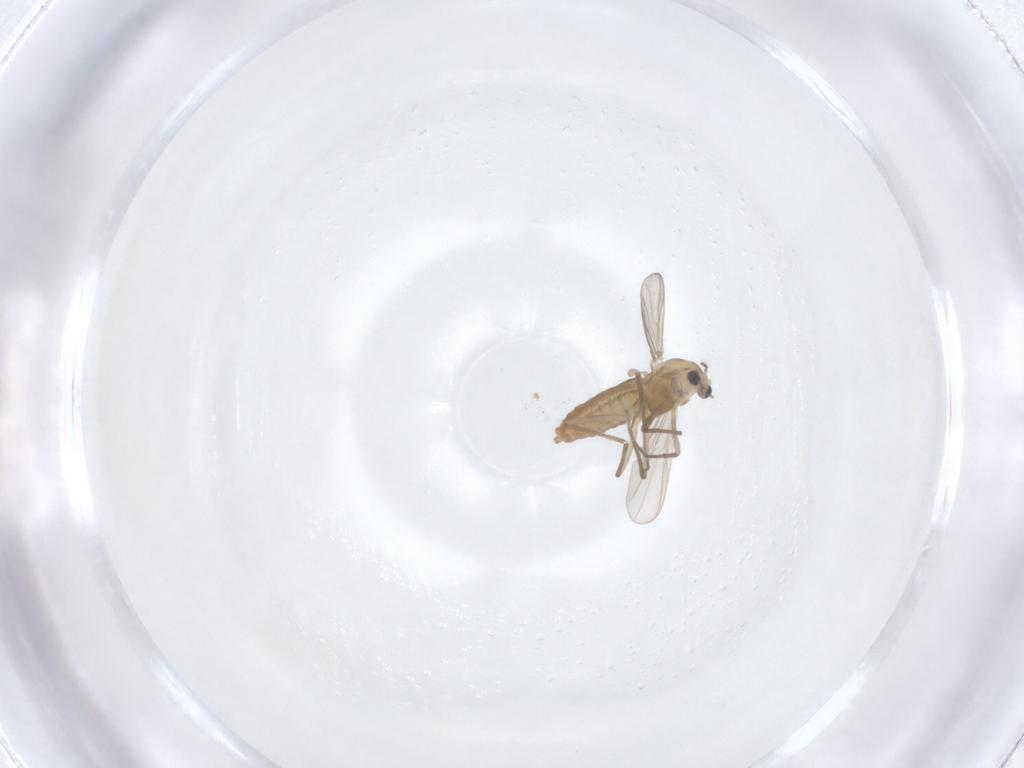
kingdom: Animalia
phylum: Arthropoda
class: Insecta
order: Diptera
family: Chironomidae
